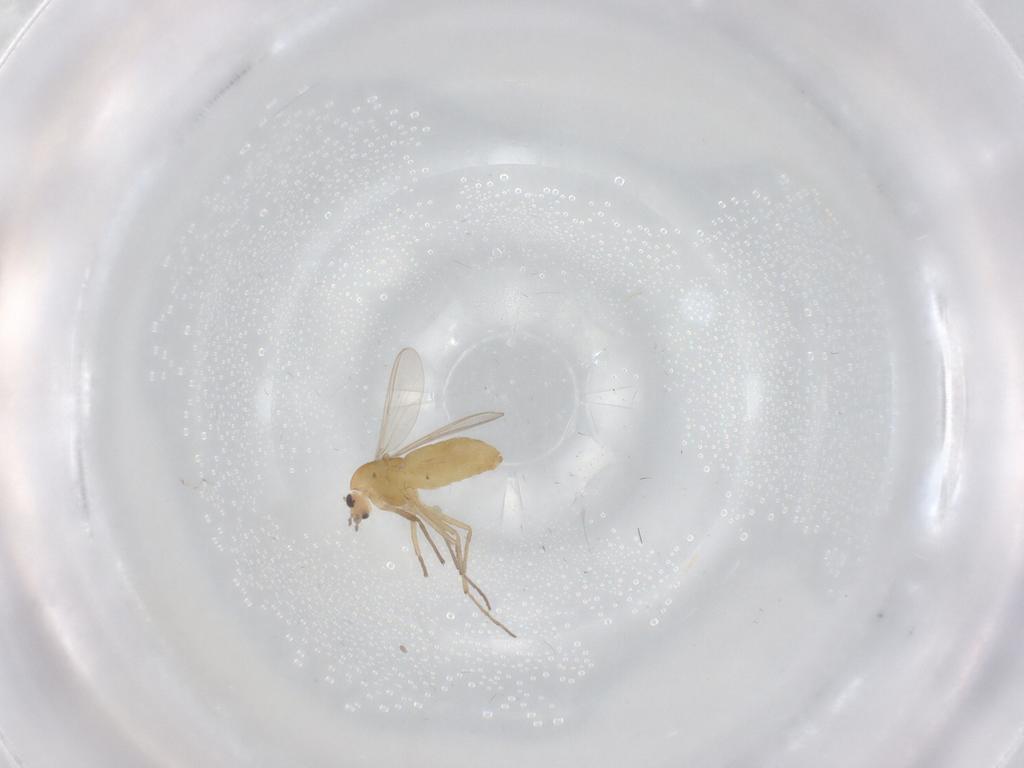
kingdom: Animalia
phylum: Arthropoda
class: Insecta
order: Diptera
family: Chironomidae
